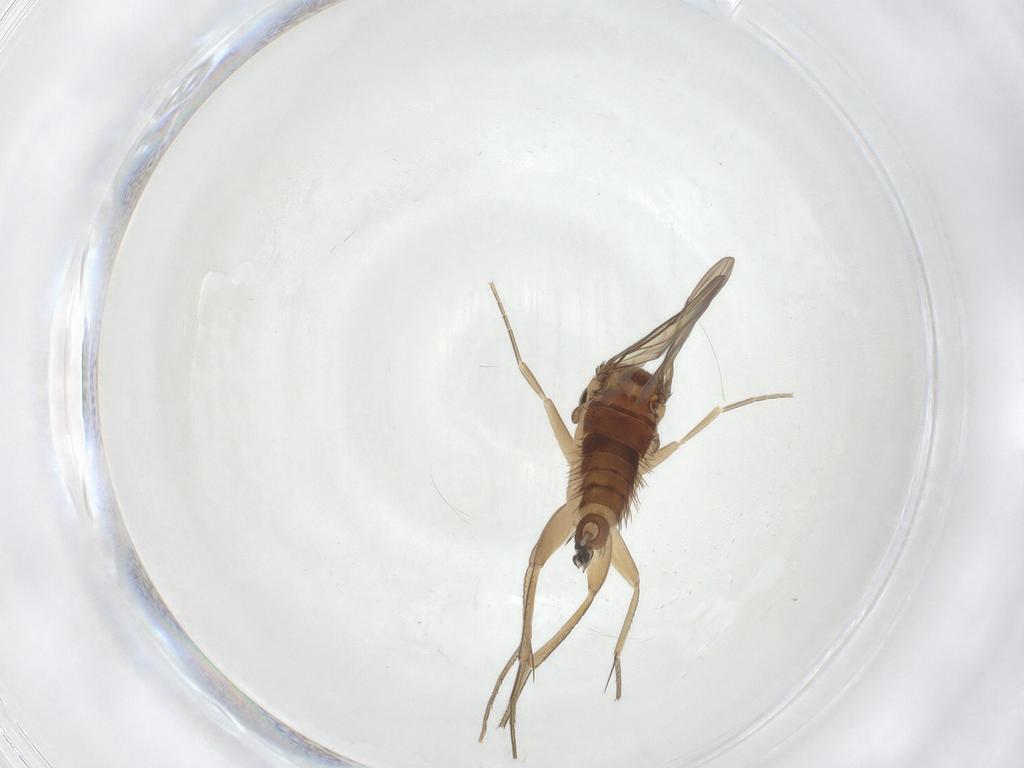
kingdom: Animalia
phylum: Arthropoda
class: Insecta
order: Diptera
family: Phoridae
